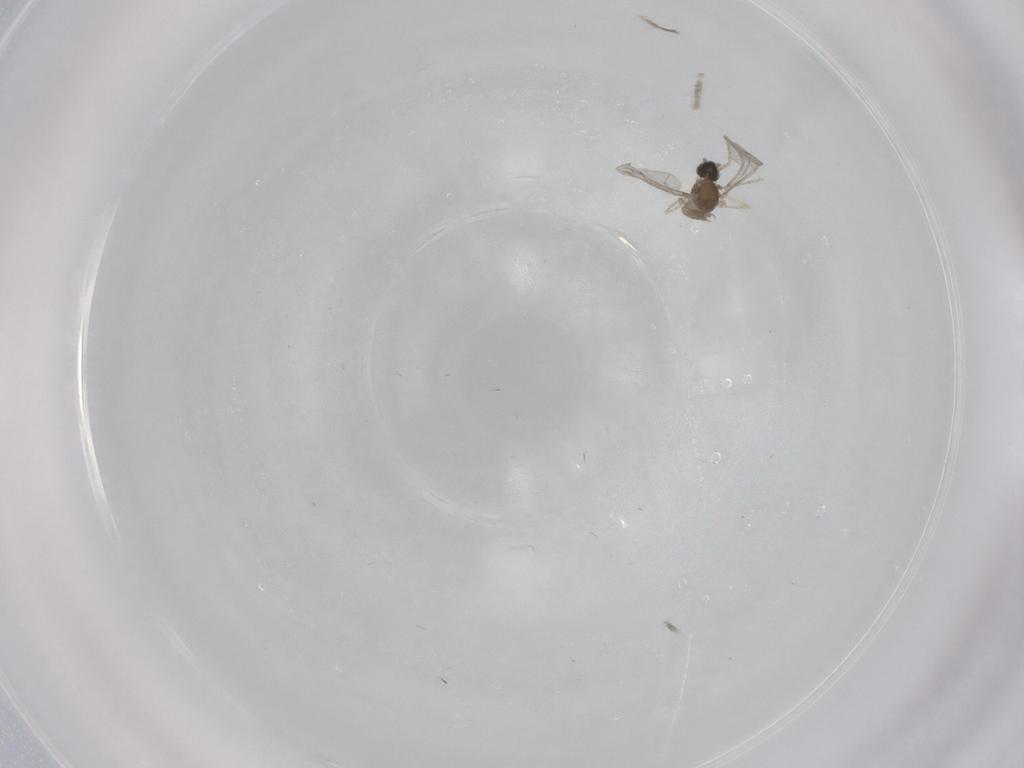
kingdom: Animalia
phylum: Arthropoda
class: Insecta
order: Diptera
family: Cecidomyiidae
